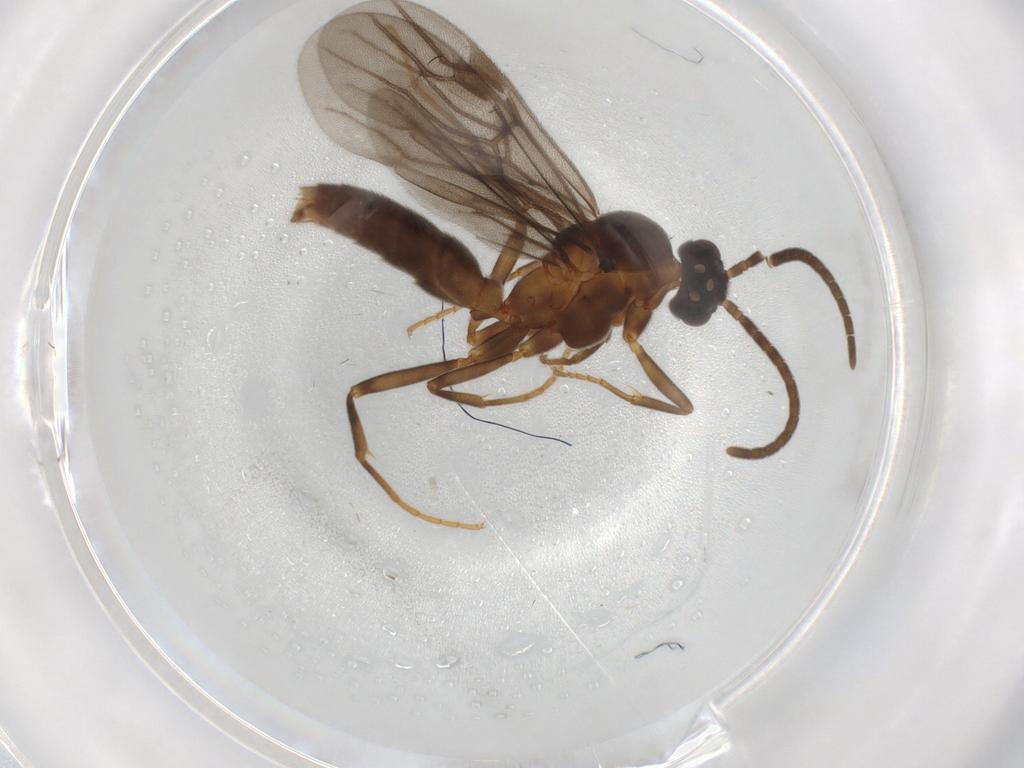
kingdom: Animalia
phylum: Arthropoda
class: Insecta
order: Hymenoptera
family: Formicidae
